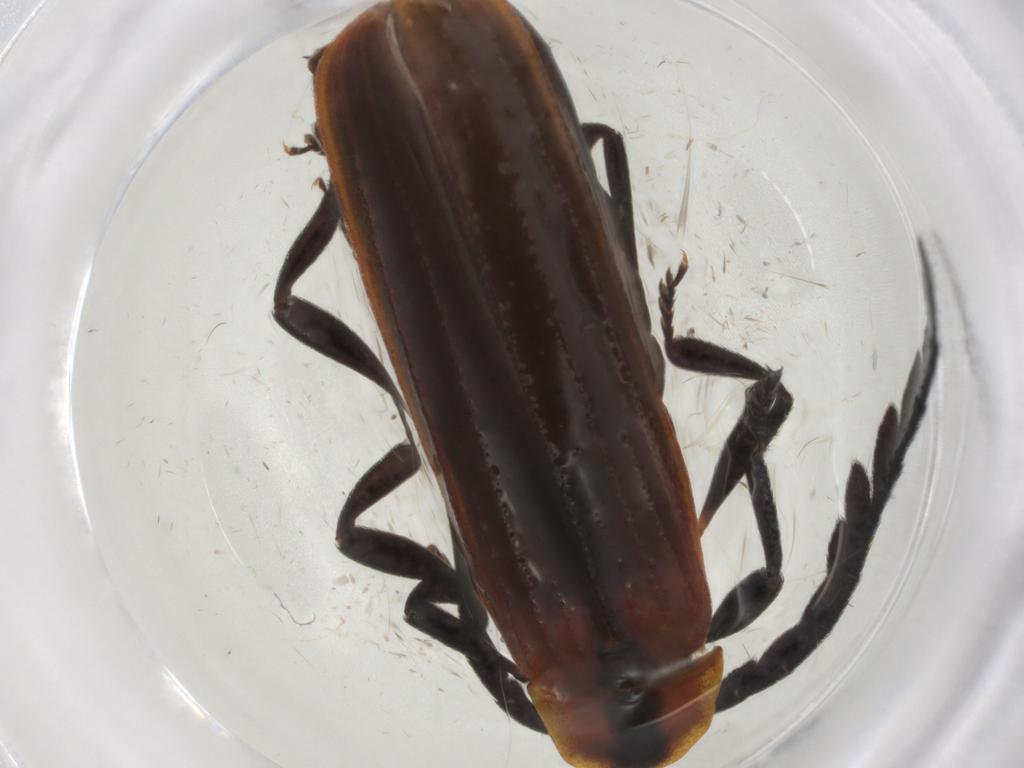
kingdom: Animalia
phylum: Arthropoda
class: Insecta
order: Coleoptera
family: Lycidae
